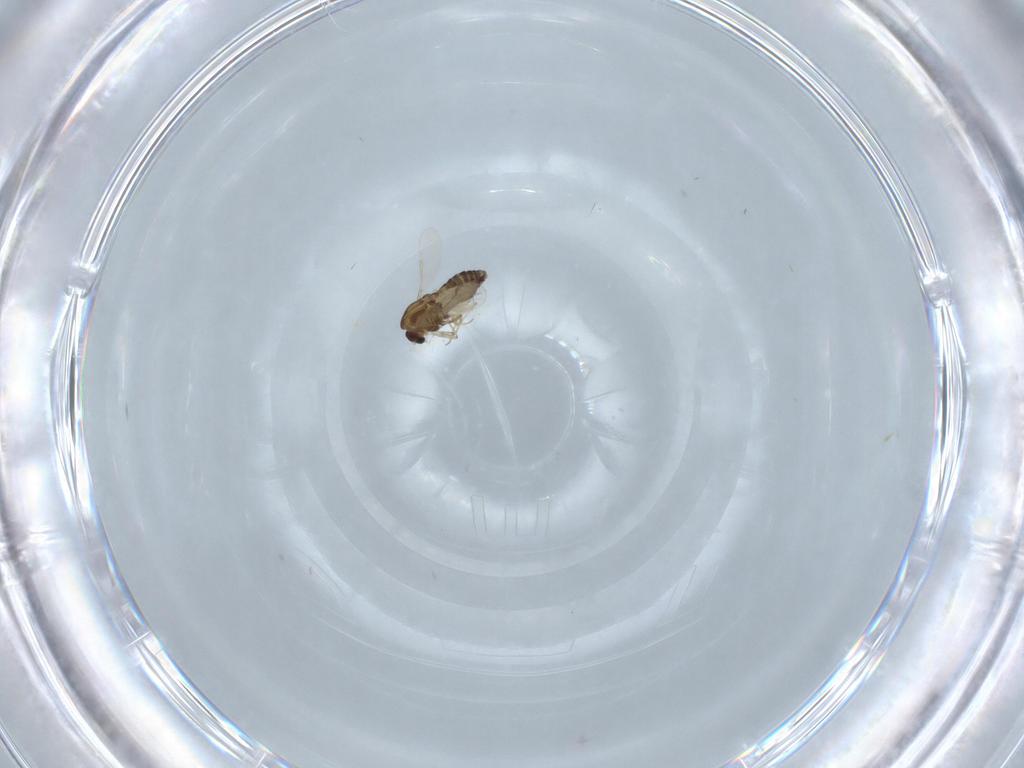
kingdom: Animalia
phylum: Arthropoda
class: Insecta
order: Diptera
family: Chironomidae
